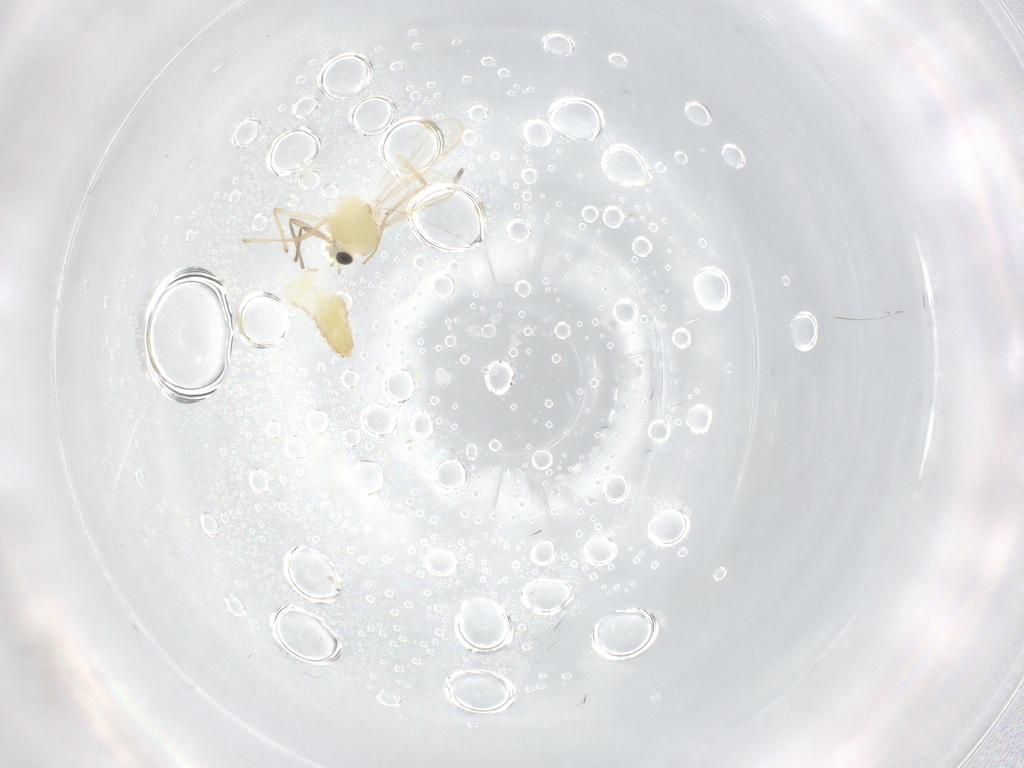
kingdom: Animalia
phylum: Arthropoda
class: Insecta
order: Diptera
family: Chironomidae
